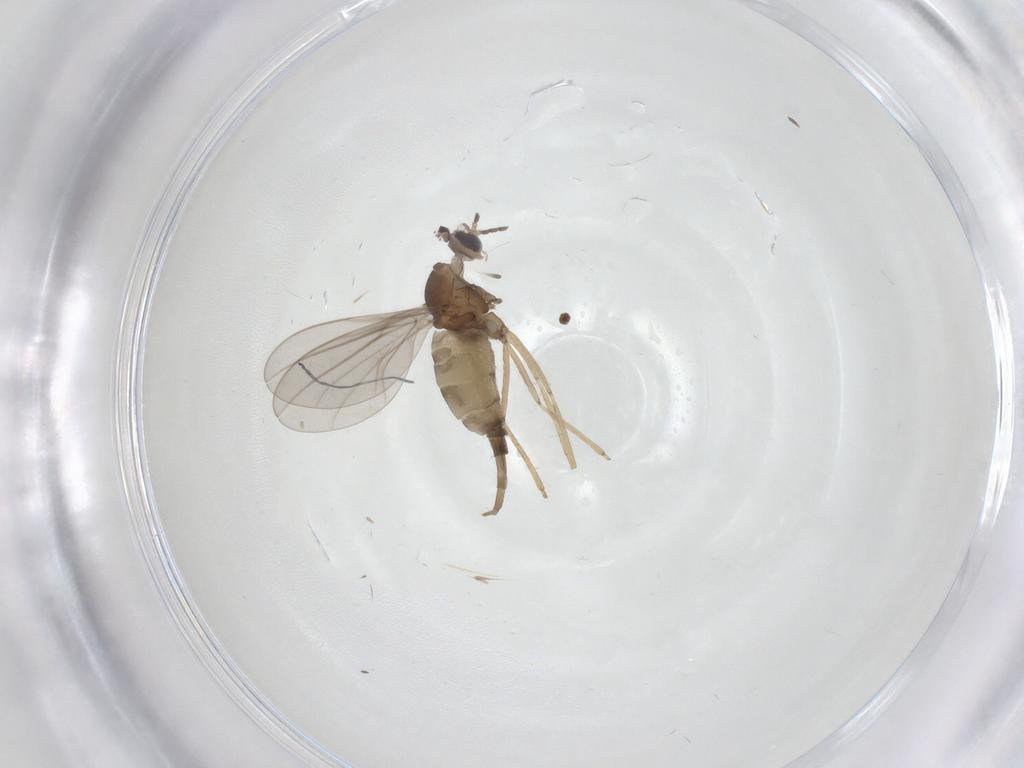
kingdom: Animalia
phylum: Arthropoda
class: Insecta
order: Diptera
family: Cecidomyiidae
